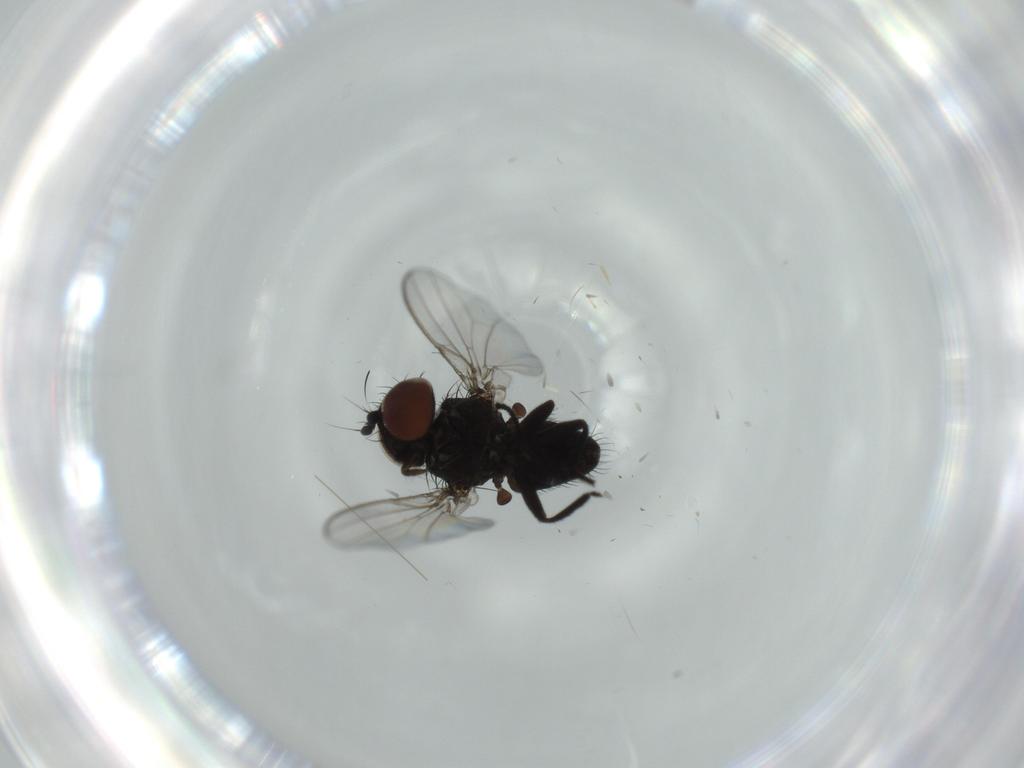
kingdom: Animalia
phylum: Arthropoda
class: Insecta
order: Diptera
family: Milichiidae
